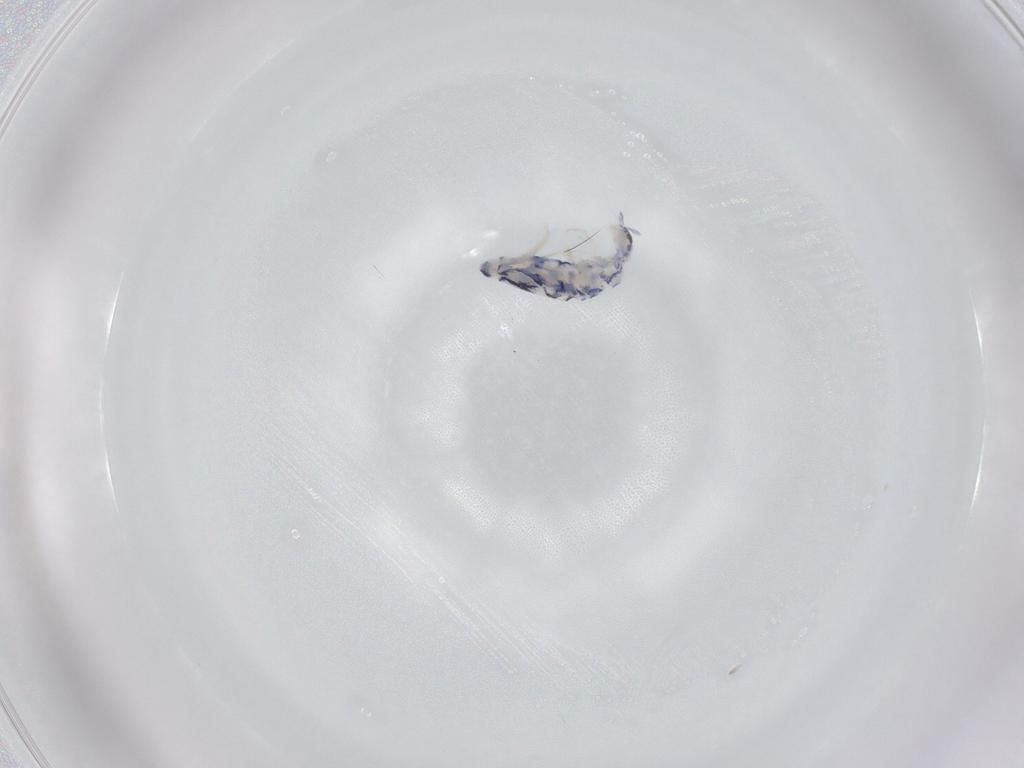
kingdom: Animalia
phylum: Arthropoda
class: Collembola
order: Entomobryomorpha
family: Entomobryidae
